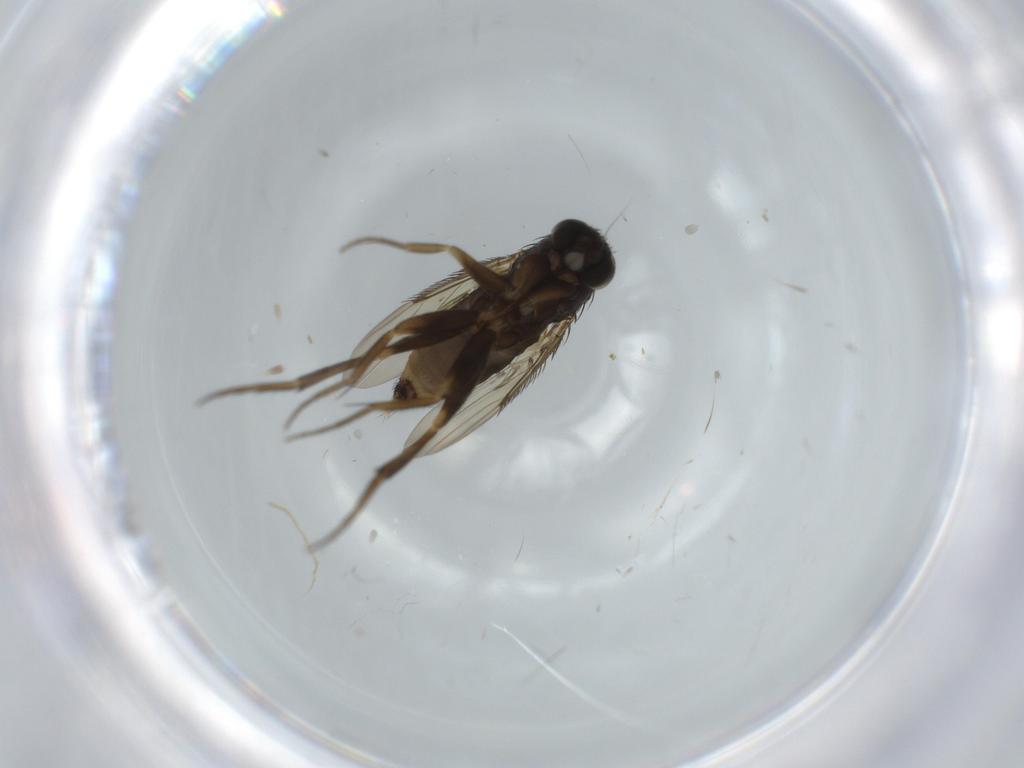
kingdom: Animalia
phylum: Arthropoda
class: Insecta
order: Diptera
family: Phoridae
